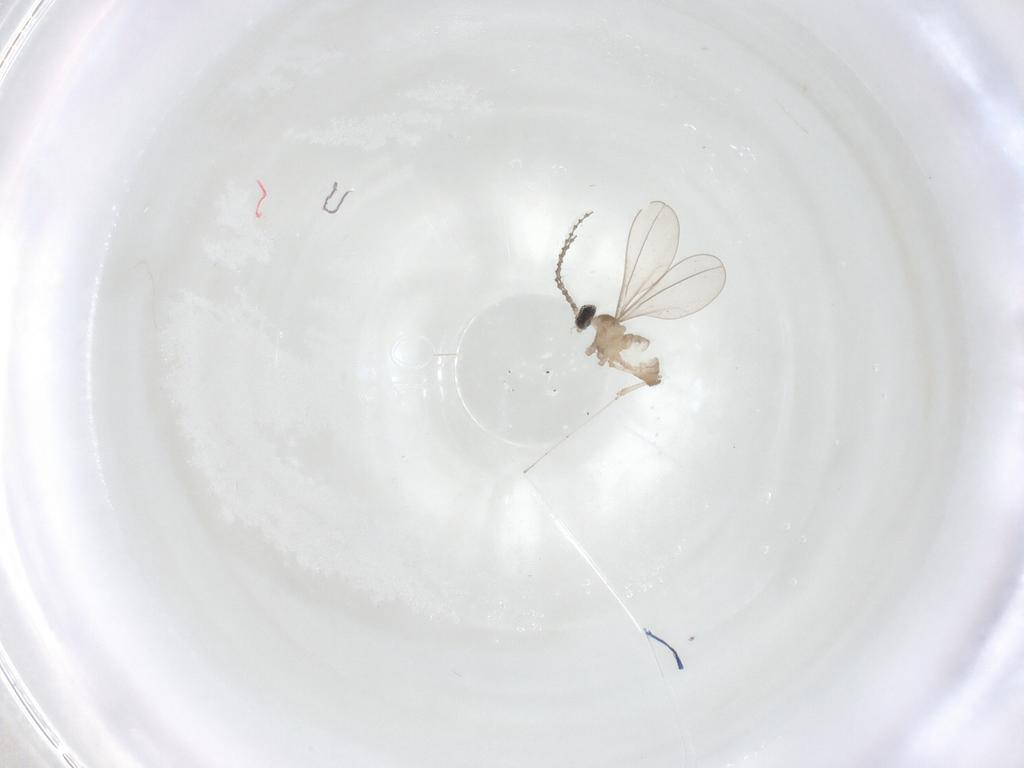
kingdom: Animalia
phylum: Arthropoda
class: Insecta
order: Diptera
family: Cecidomyiidae
